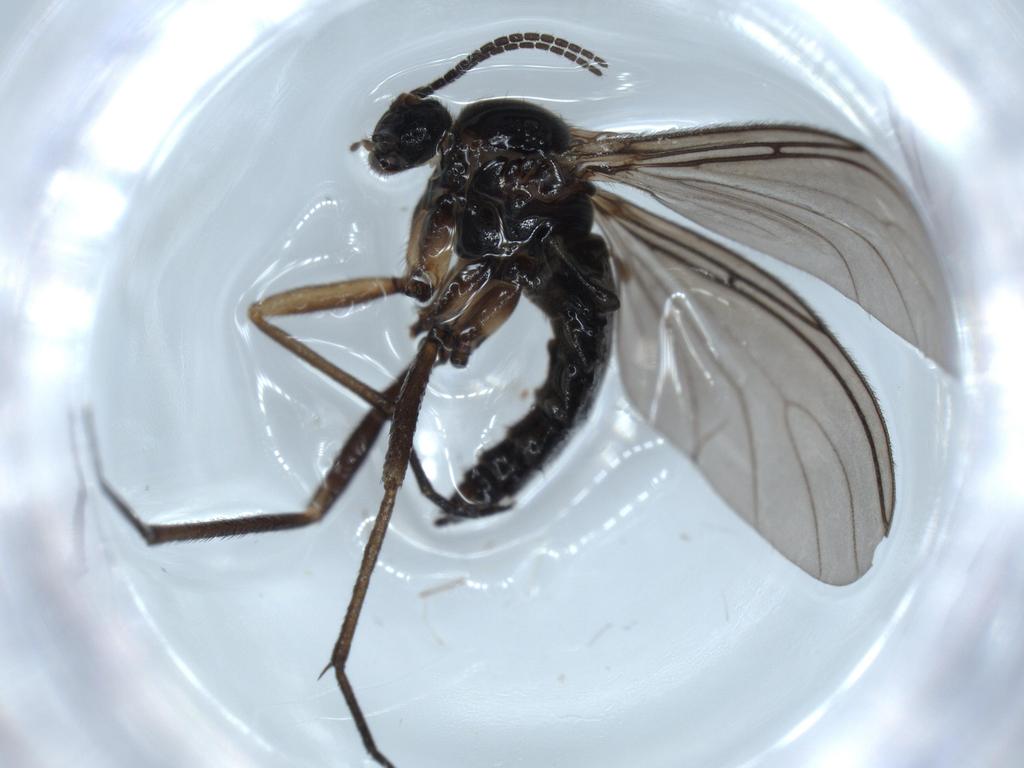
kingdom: Animalia
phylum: Arthropoda
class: Insecta
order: Diptera
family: Sciaridae
